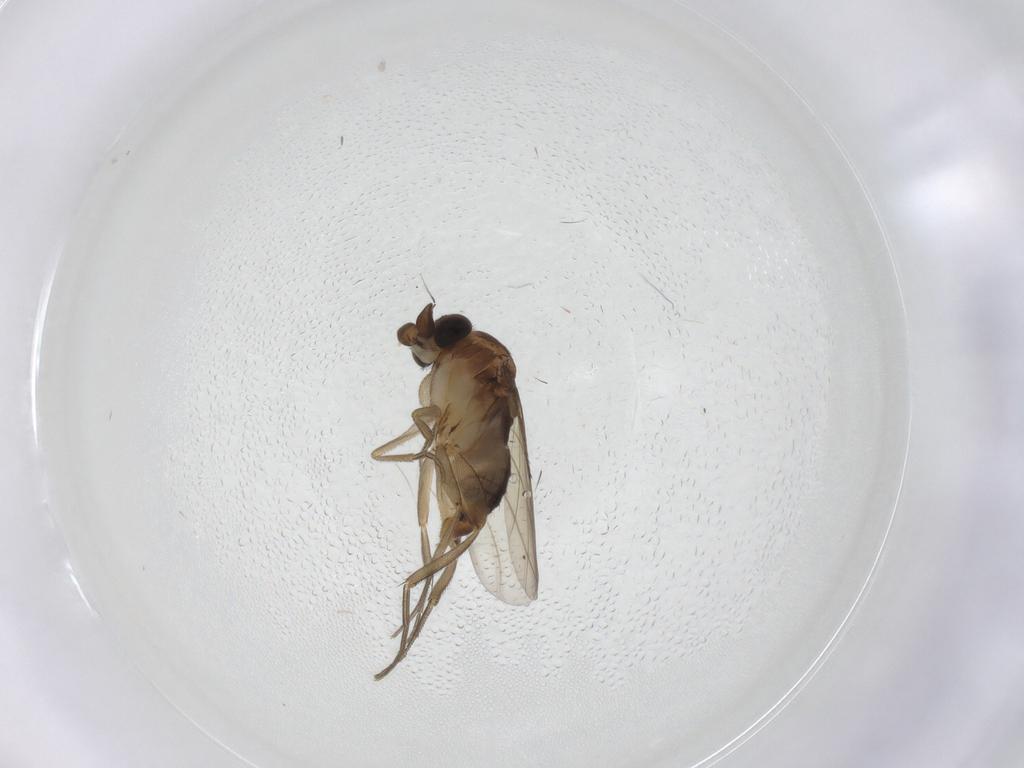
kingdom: Animalia
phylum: Arthropoda
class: Insecta
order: Diptera
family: Phoridae
